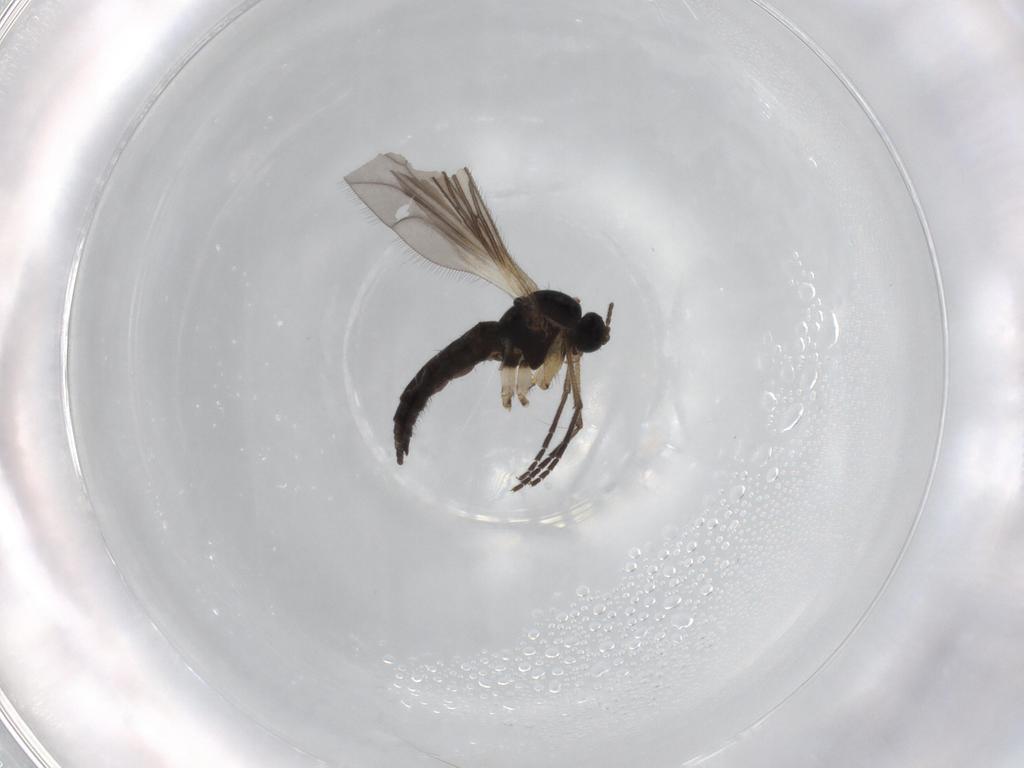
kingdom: Animalia
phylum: Arthropoda
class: Insecta
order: Diptera
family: Sciaridae
